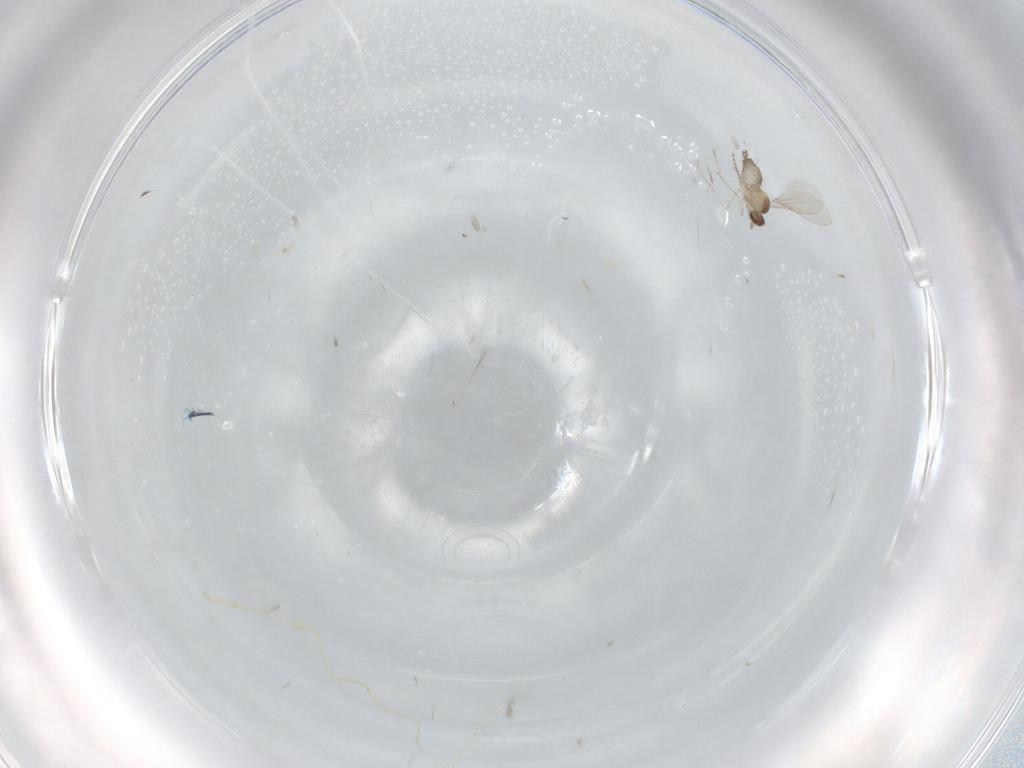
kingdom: Animalia
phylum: Arthropoda
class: Insecta
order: Diptera
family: Cecidomyiidae
